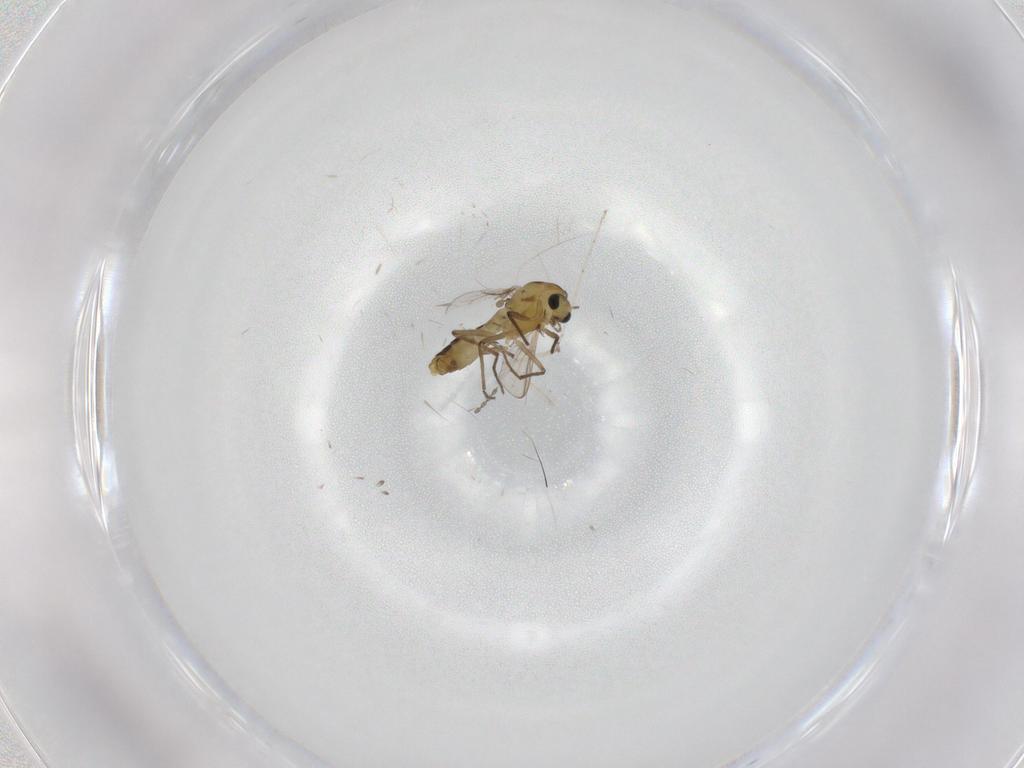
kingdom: Animalia
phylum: Arthropoda
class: Insecta
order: Diptera
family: Chironomidae
